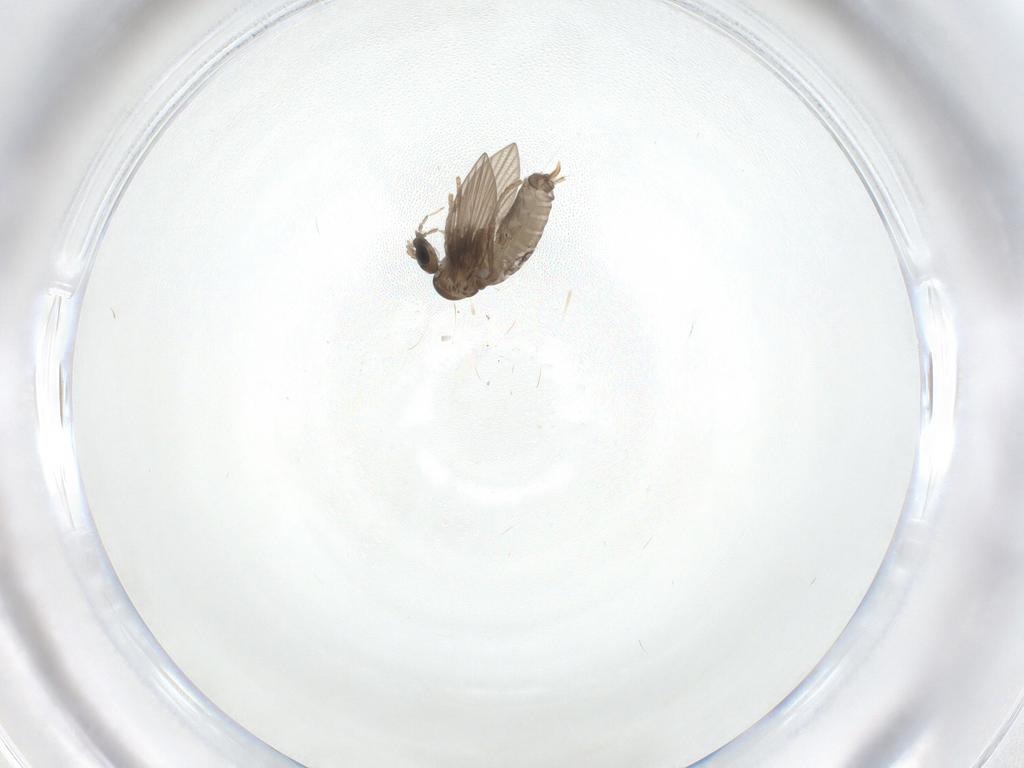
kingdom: Animalia
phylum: Arthropoda
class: Insecta
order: Diptera
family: Psychodidae
